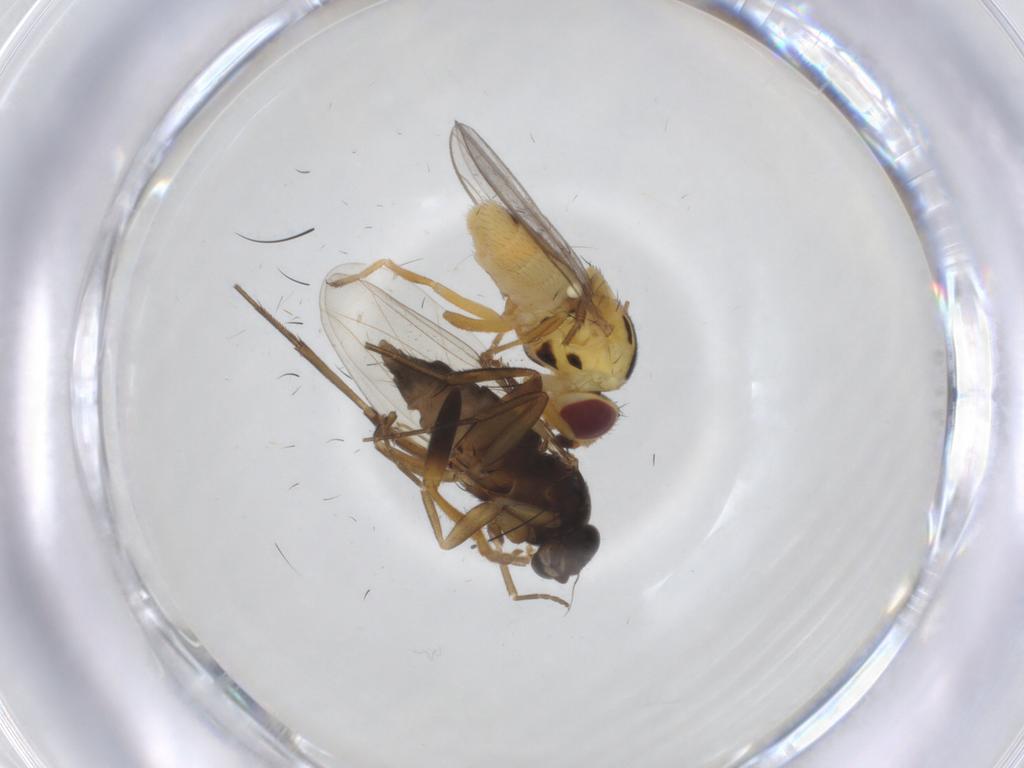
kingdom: Animalia
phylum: Arthropoda
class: Insecta
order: Diptera
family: Phoridae
